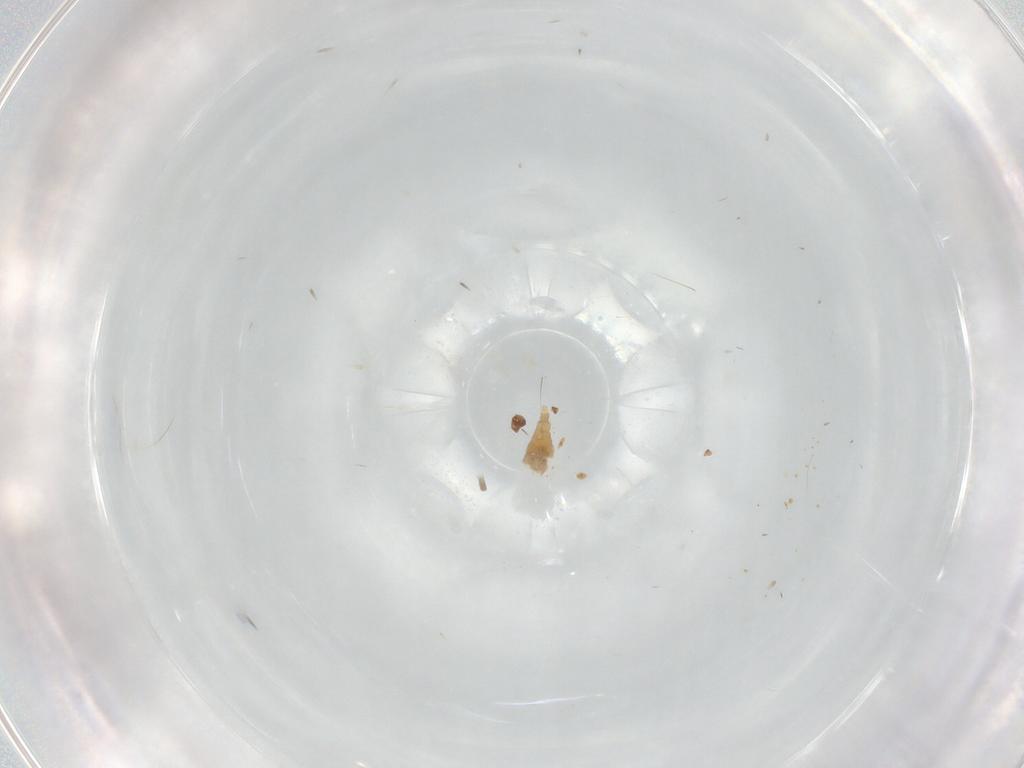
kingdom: Animalia
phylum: Arthropoda
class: Insecta
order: Diptera
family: Cecidomyiidae
